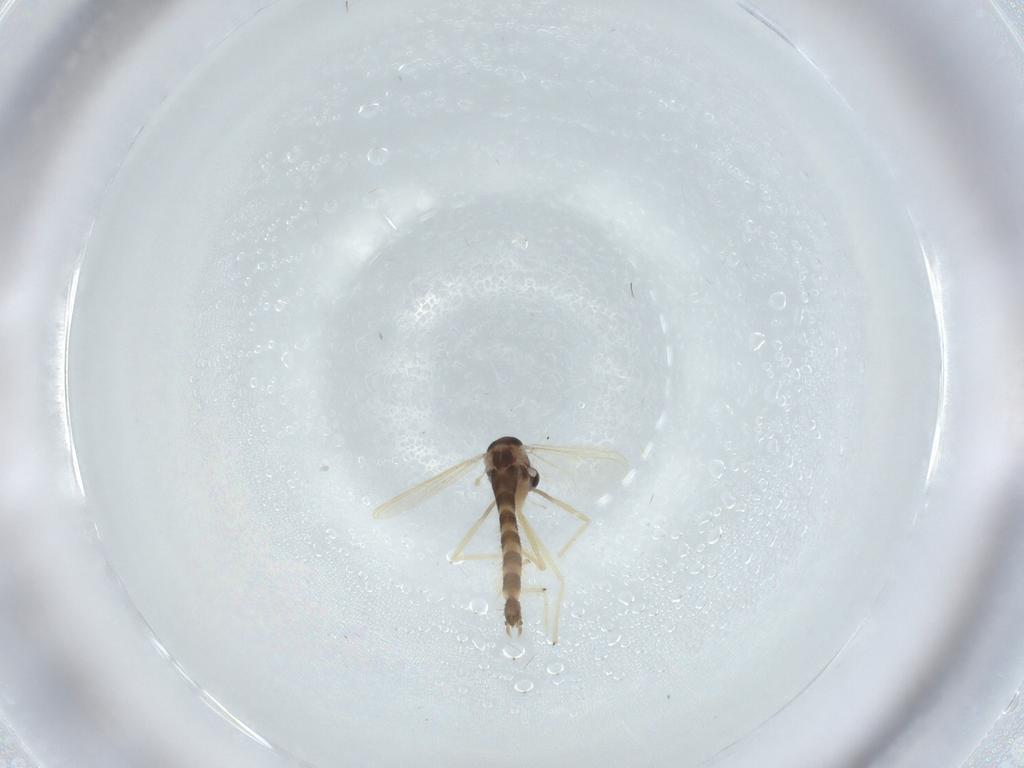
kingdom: Animalia
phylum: Arthropoda
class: Insecta
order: Diptera
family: Chironomidae
